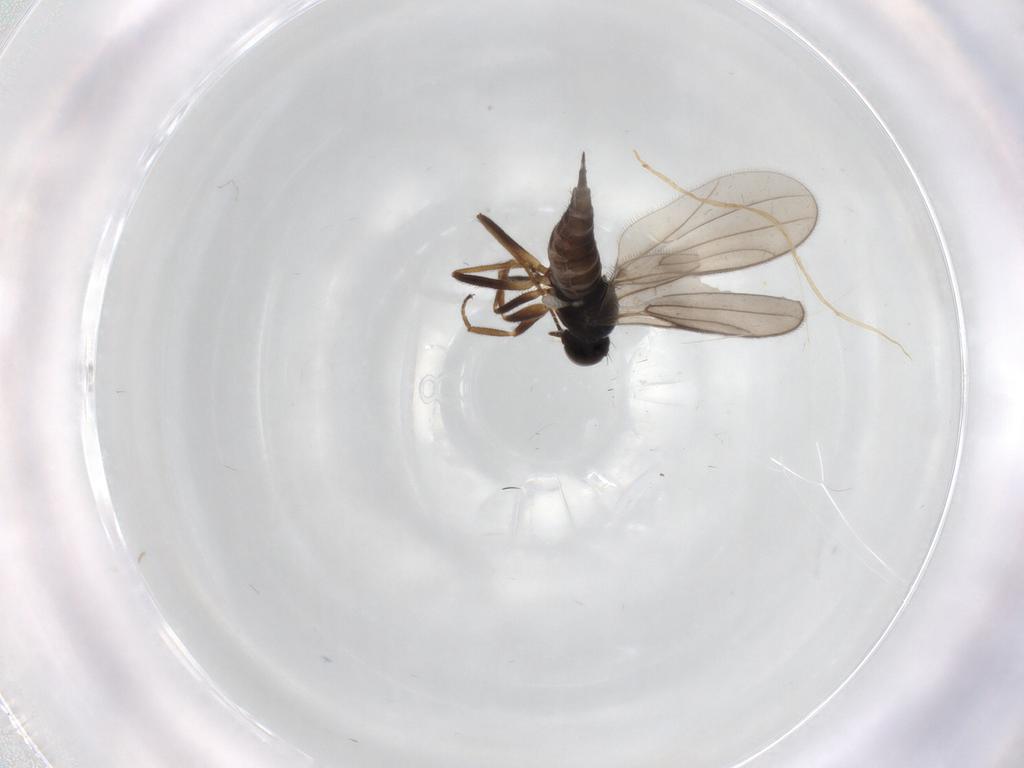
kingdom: Animalia
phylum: Arthropoda
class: Insecta
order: Diptera
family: Hybotidae
